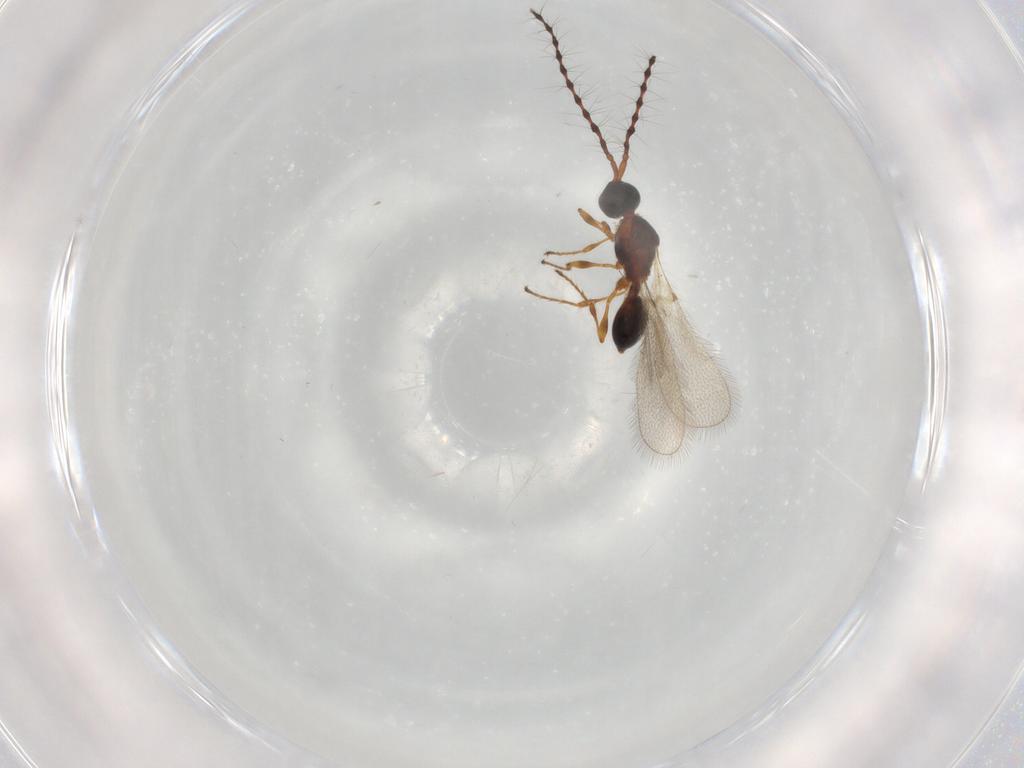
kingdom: Animalia
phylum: Arthropoda
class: Insecta
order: Hymenoptera
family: Diapriidae
